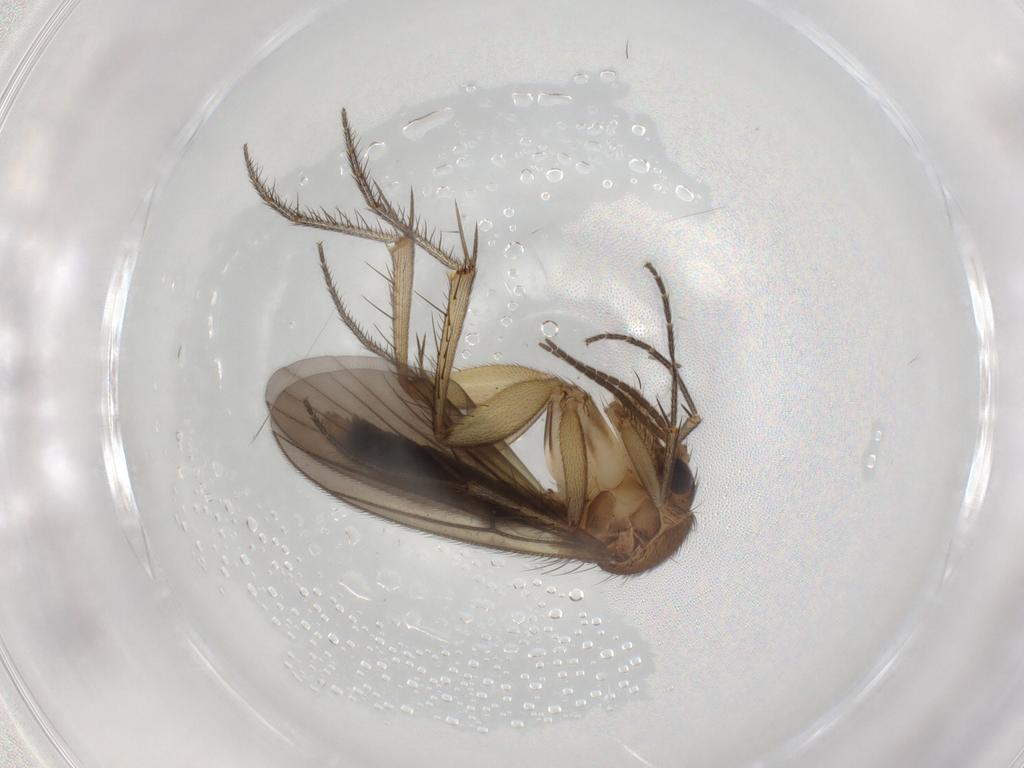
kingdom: Animalia
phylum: Arthropoda
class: Insecta
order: Diptera
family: Mycetophilidae
